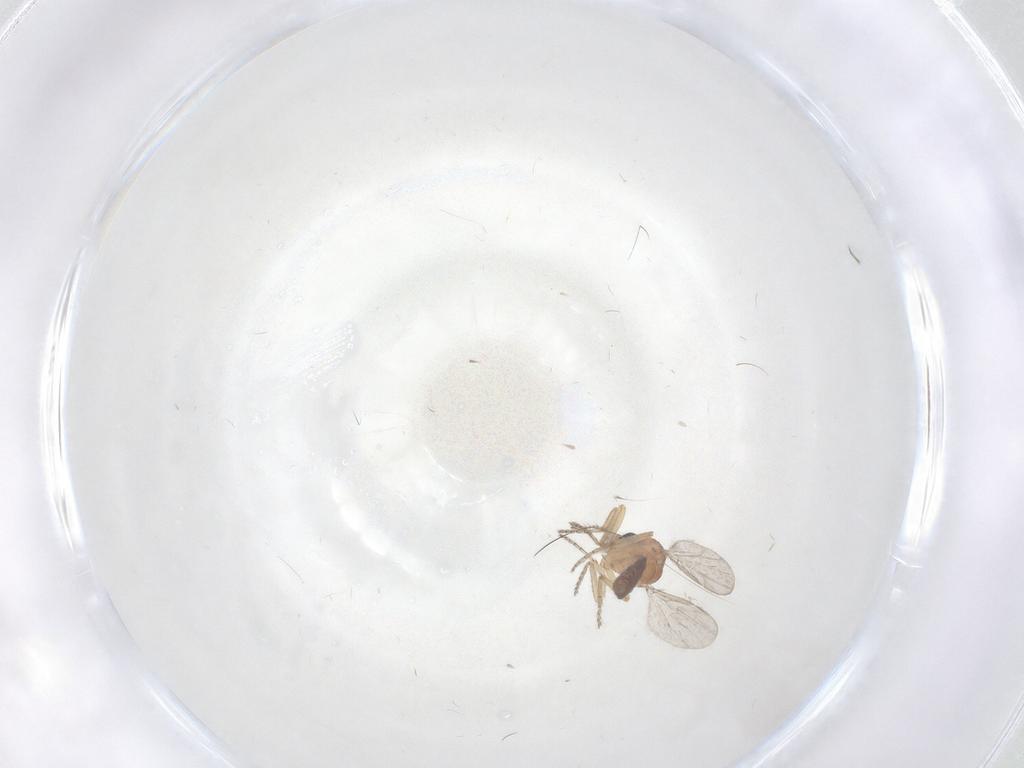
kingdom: Animalia
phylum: Arthropoda
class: Insecta
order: Diptera
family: Ceratopogonidae
